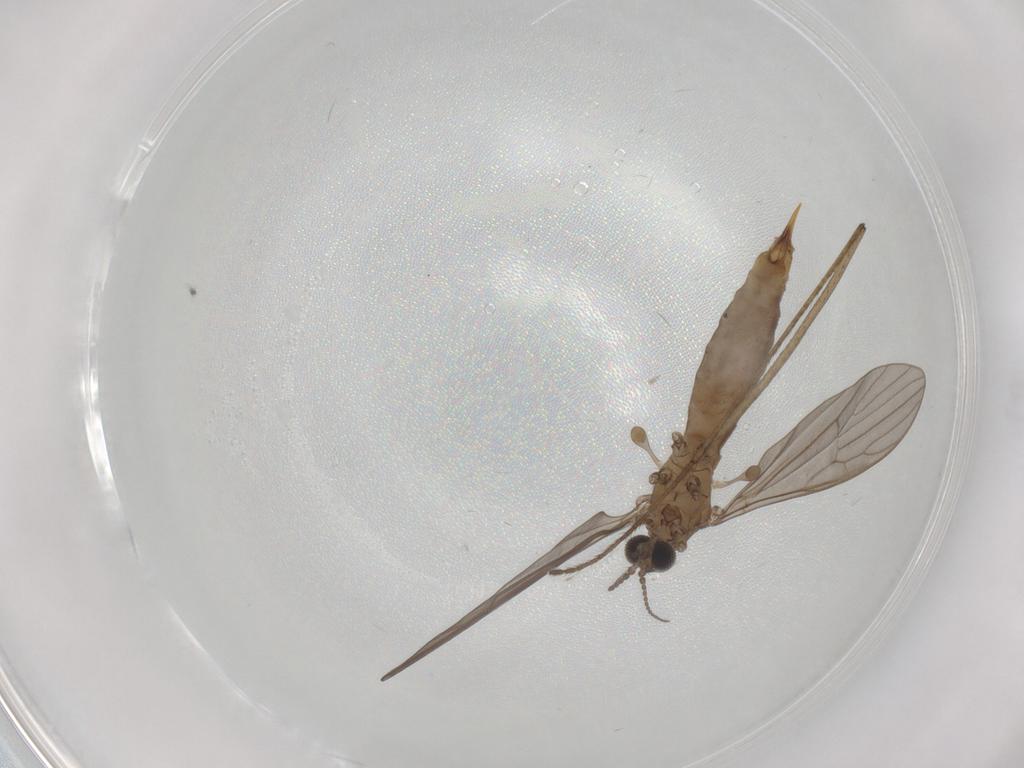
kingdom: Animalia
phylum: Arthropoda
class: Insecta
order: Diptera
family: Limoniidae
